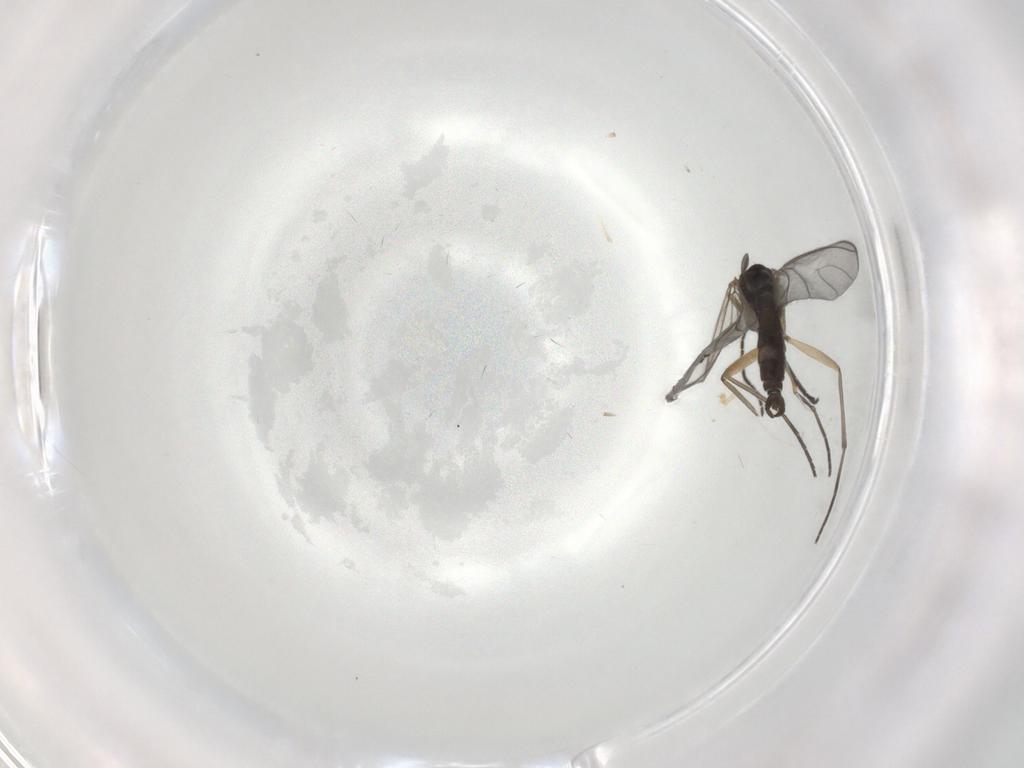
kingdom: Animalia
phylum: Arthropoda
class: Insecta
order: Diptera
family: Sciaridae
